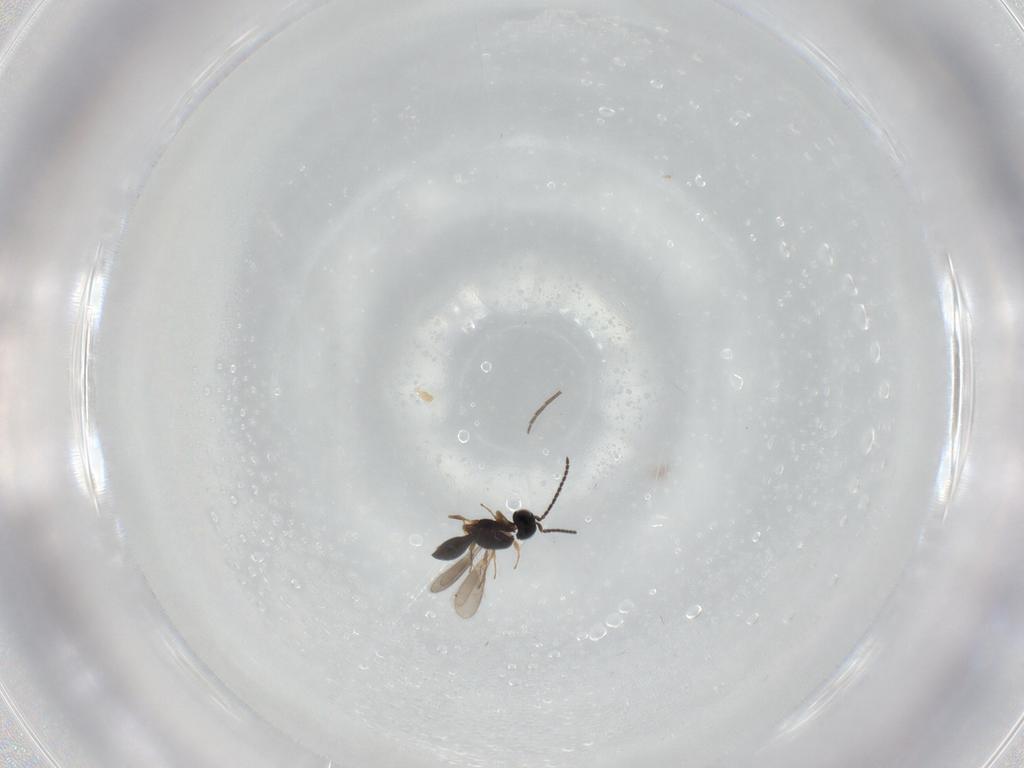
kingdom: Animalia
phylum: Arthropoda
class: Insecta
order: Hymenoptera
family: Scelionidae
